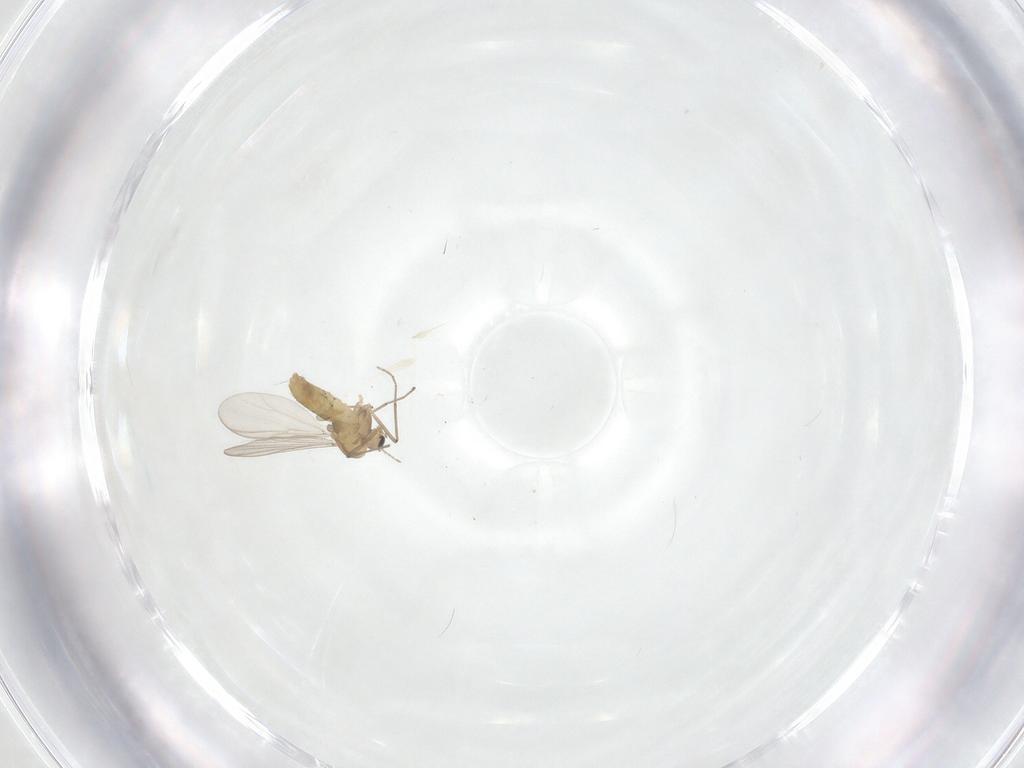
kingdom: Animalia
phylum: Arthropoda
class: Insecta
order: Diptera
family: Chironomidae
